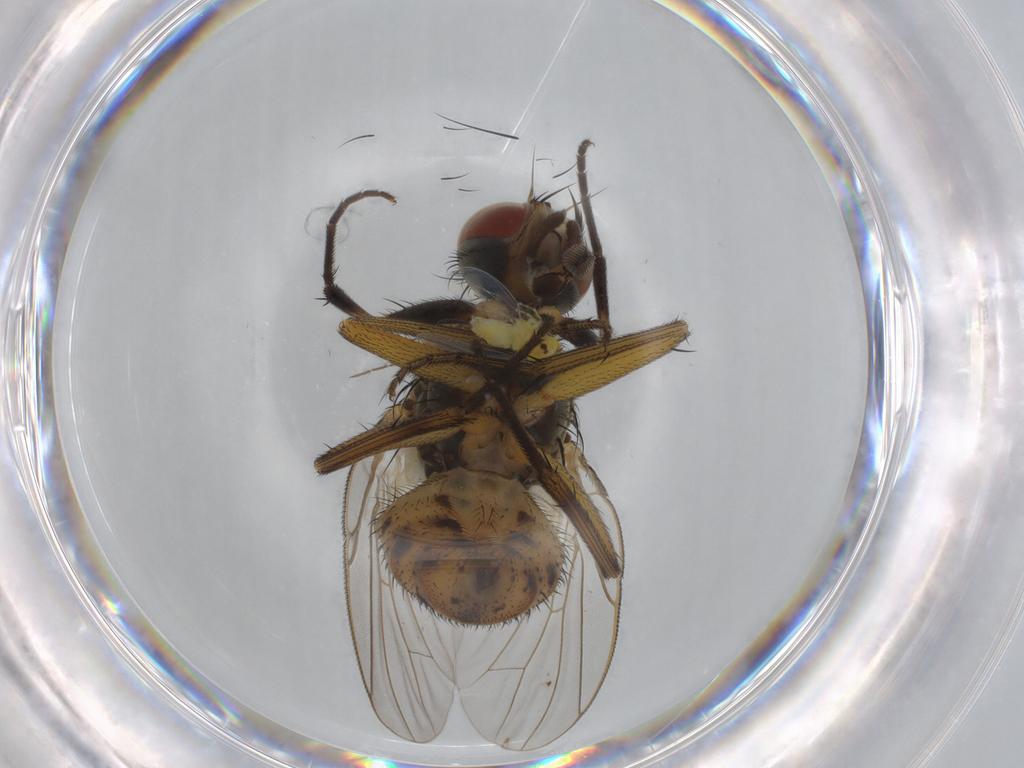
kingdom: Animalia
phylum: Arthropoda
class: Insecta
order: Diptera
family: Muscidae
